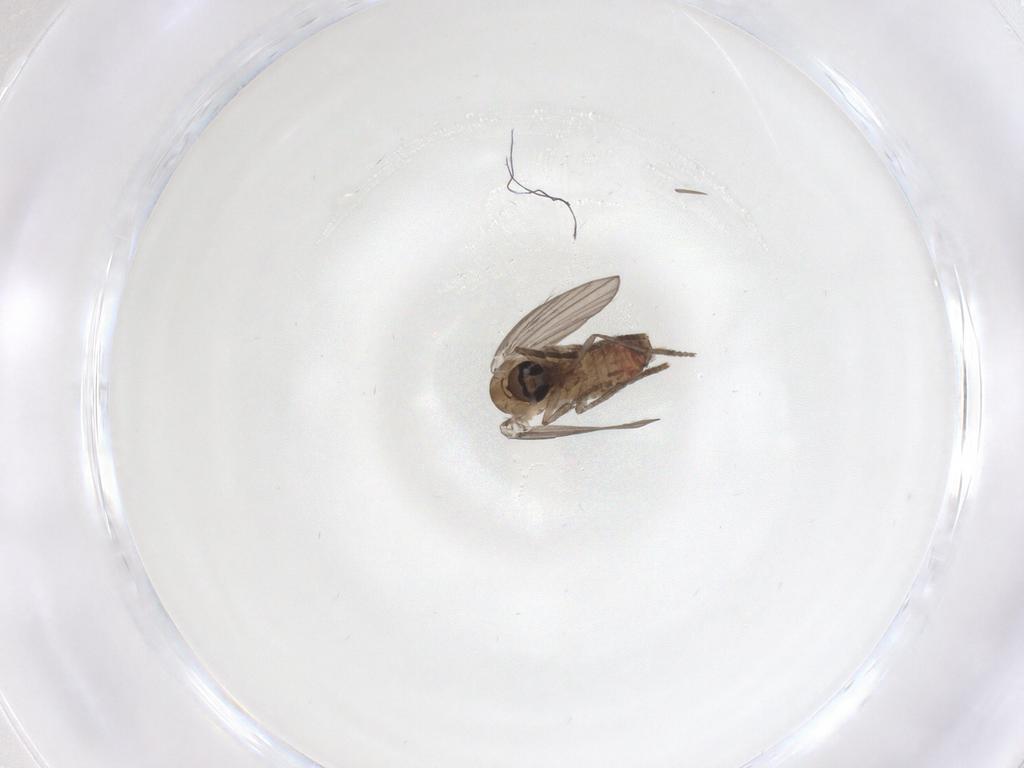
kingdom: Animalia
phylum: Arthropoda
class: Insecta
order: Diptera
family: Psychodidae
